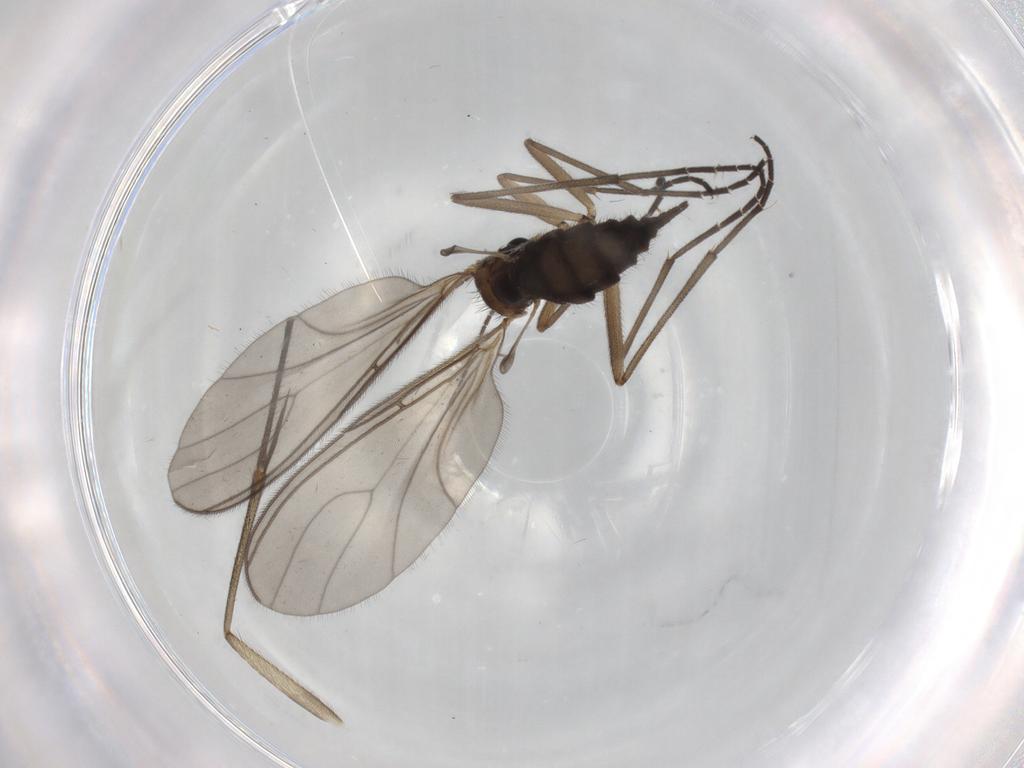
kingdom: Animalia
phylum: Arthropoda
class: Insecta
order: Diptera
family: Sciaridae
